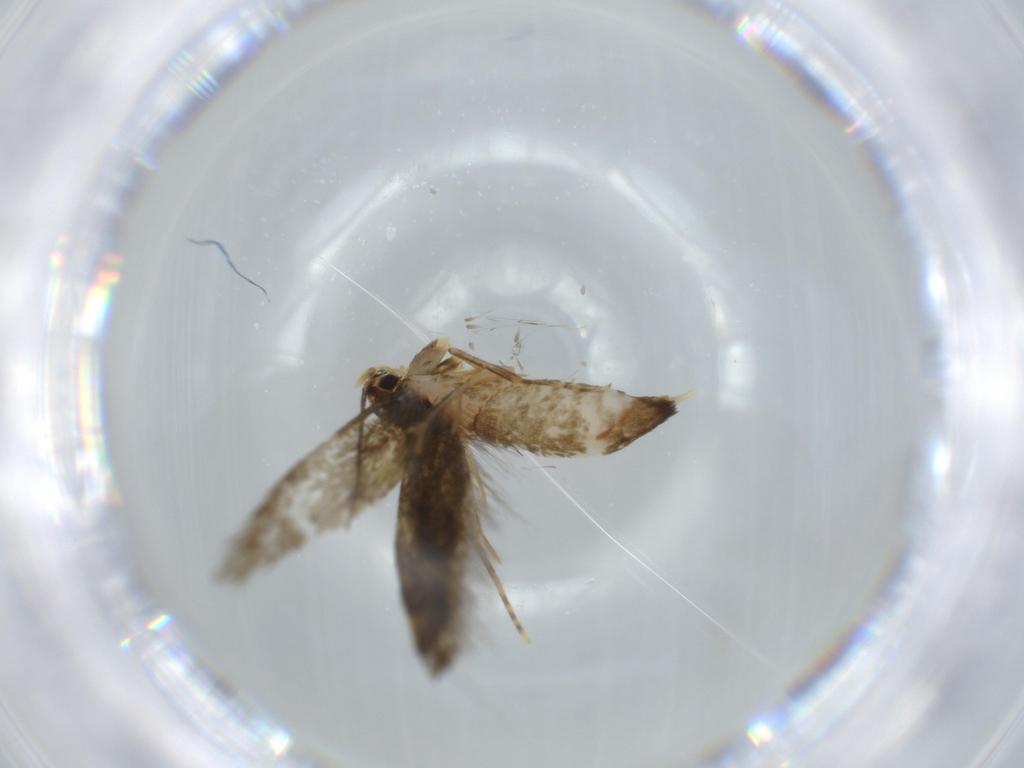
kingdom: Animalia
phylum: Arthropoda
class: Insecta
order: Lepidoptera
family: Tineidae
